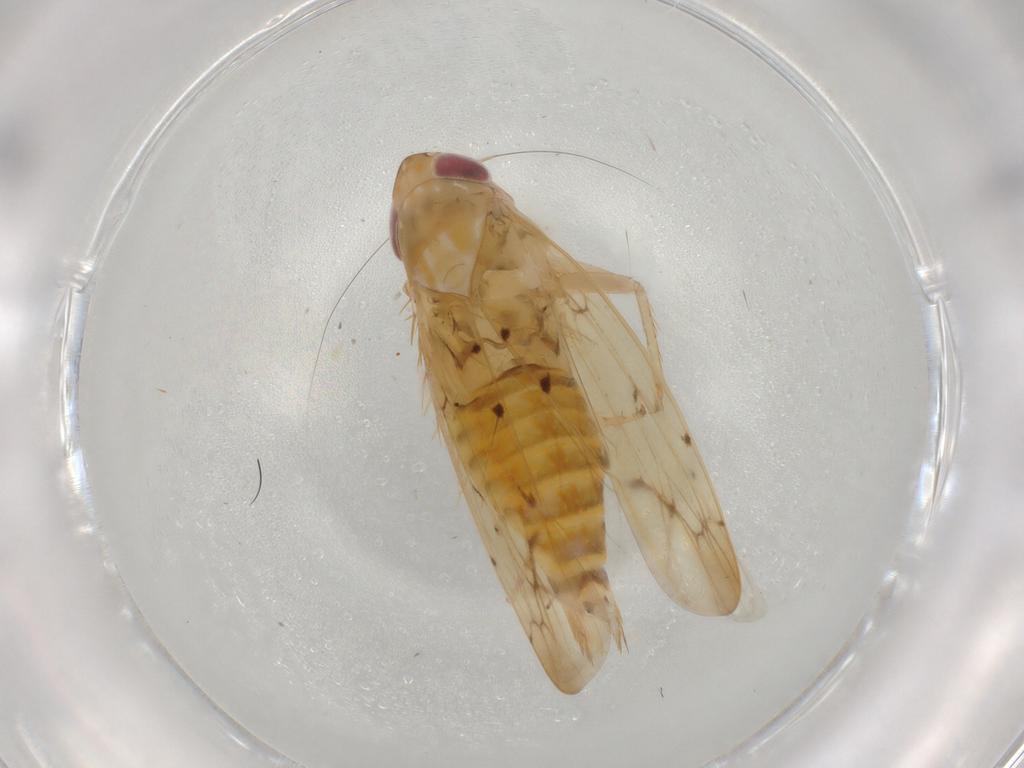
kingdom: Animalia
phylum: Arthropoda
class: Insecta
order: Hemiptera
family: Cicadellidae
